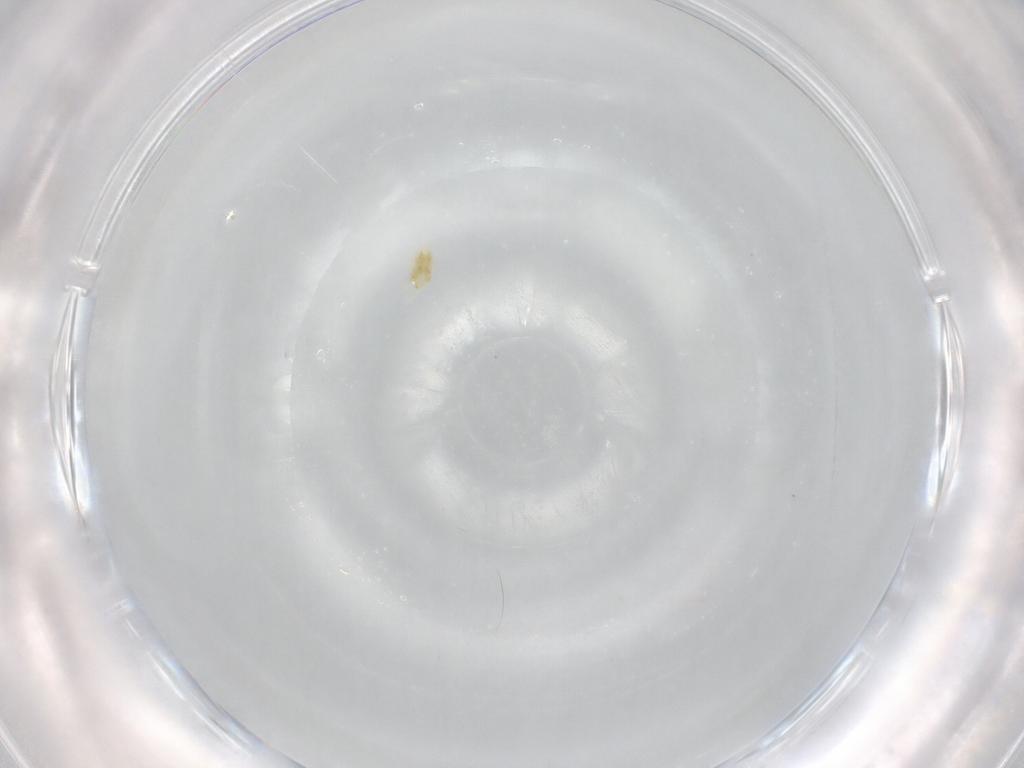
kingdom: Animalia
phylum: Arthropoda
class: Arachnida
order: Trombidiformes
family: Eupodidae
